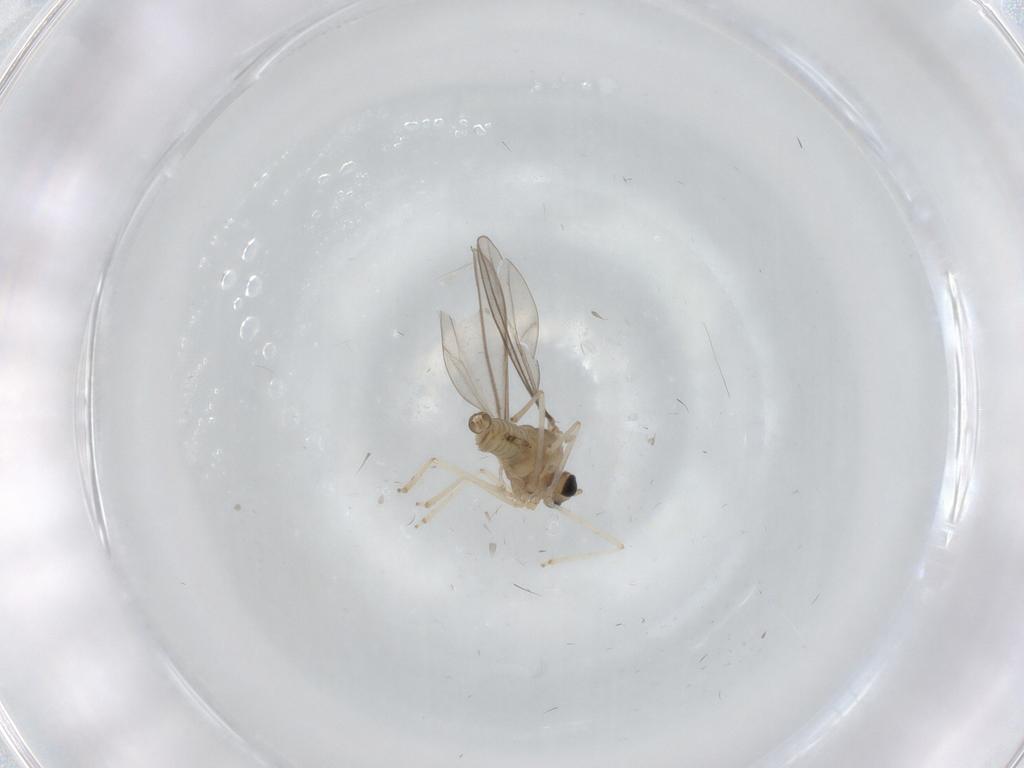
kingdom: Animalia
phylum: Arthropoda
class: Insecta
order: Diptera
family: Cecidomyiidae
